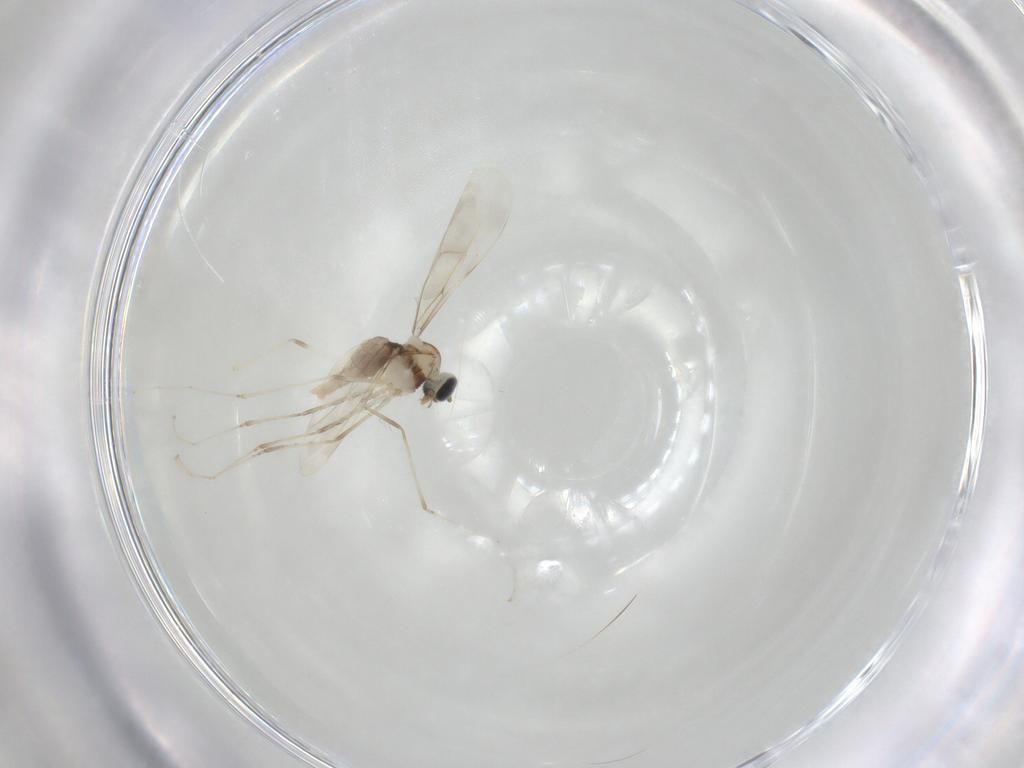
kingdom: Animalia
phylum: Arthropoda
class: Insecta
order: Diptera
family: Cecidomyiidae
